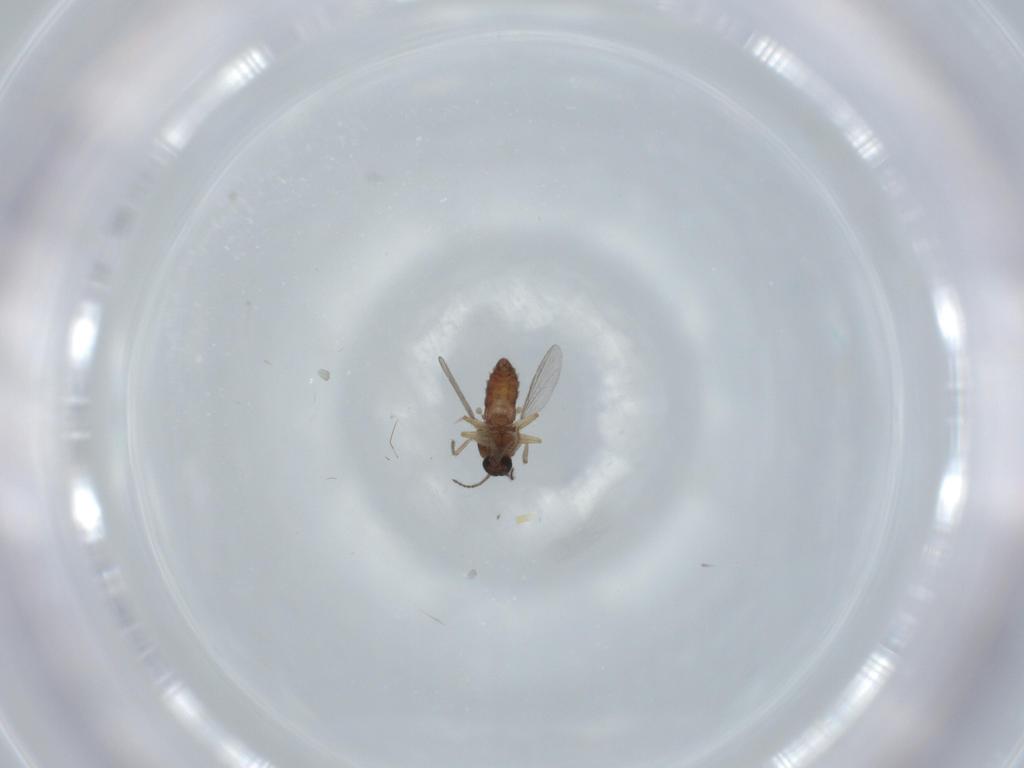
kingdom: Animalia
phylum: Arthropoda
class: Insecta
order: Diptera
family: Ceratopogonidae
